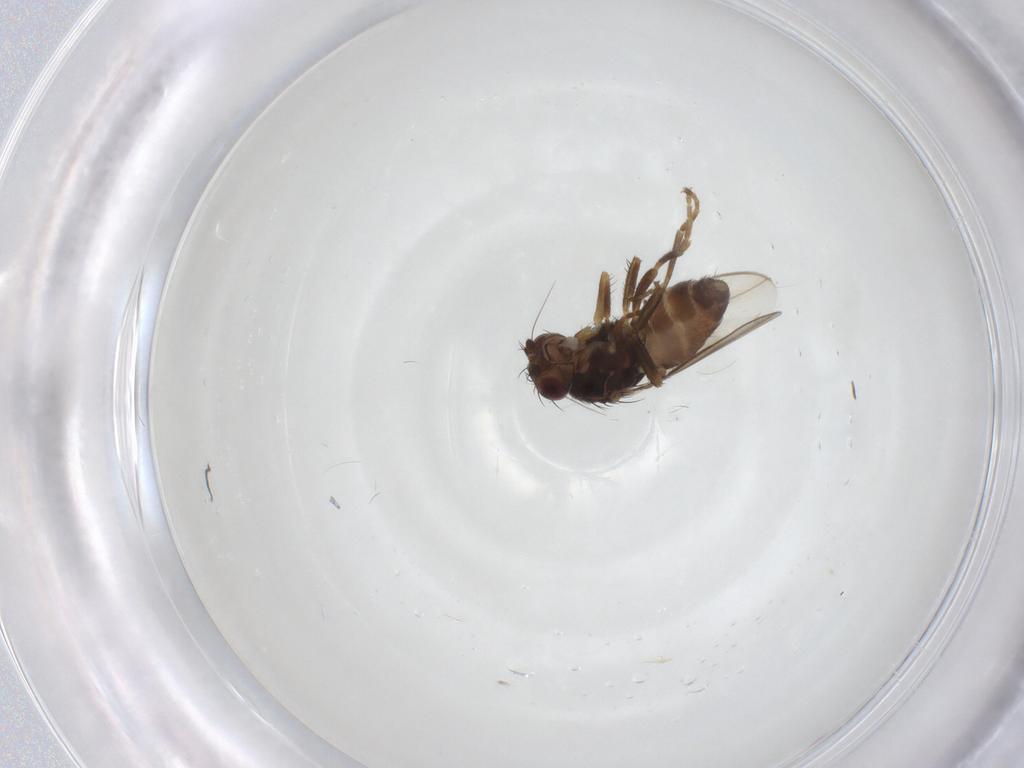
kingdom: Animalia
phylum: Arthropoda
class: Insecta
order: Diptera
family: Sphaeroceridae
